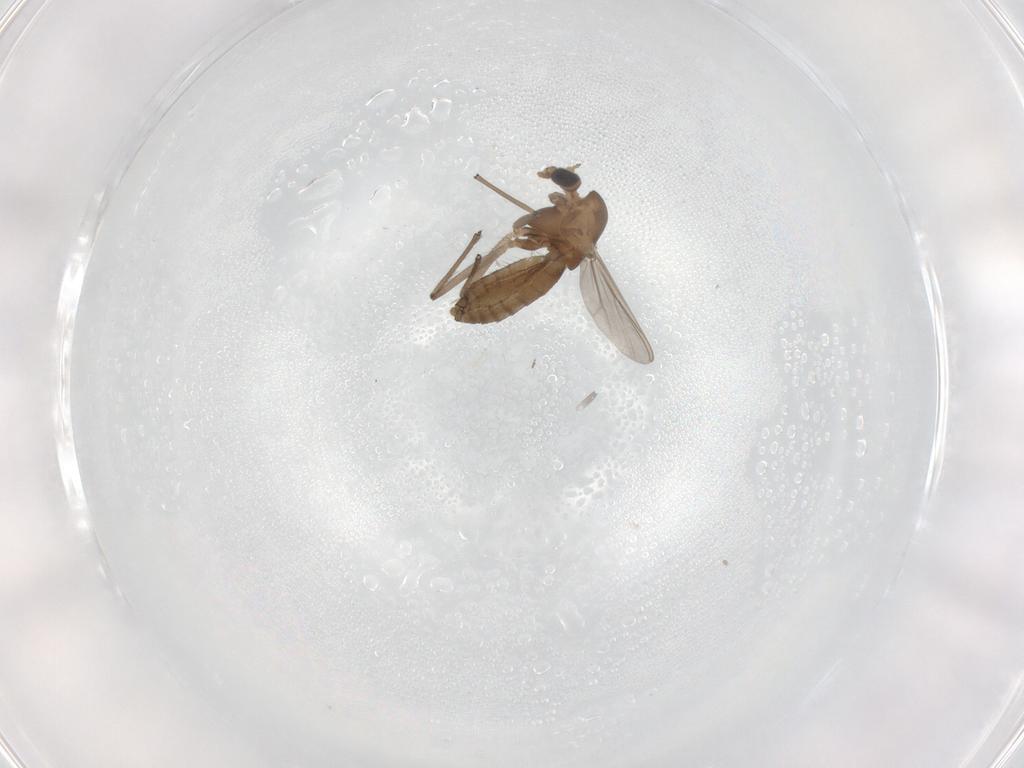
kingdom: Animalia
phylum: Arthropoda
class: Insecta
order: Diptera
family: Chironomidae
